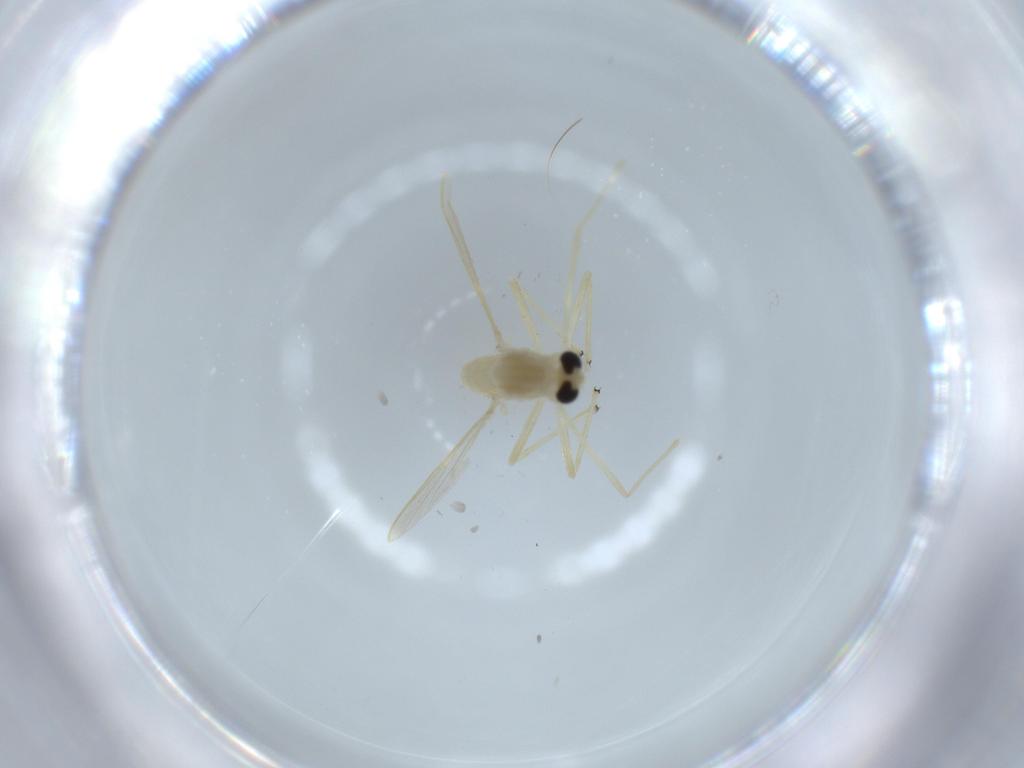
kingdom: Animalia
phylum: Arthropoda
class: Insecta
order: Diptera
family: Chironomidae
